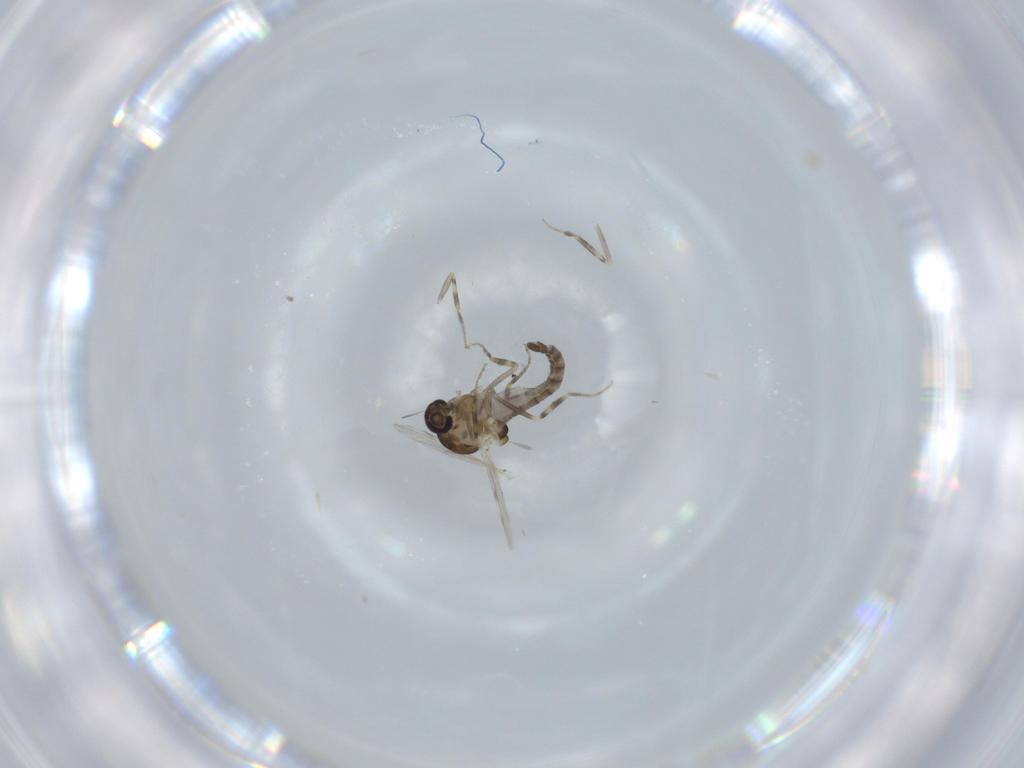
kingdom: Animalia
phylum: Arthropoda
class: Insecta
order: Diptera
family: Ceratopogonidae
